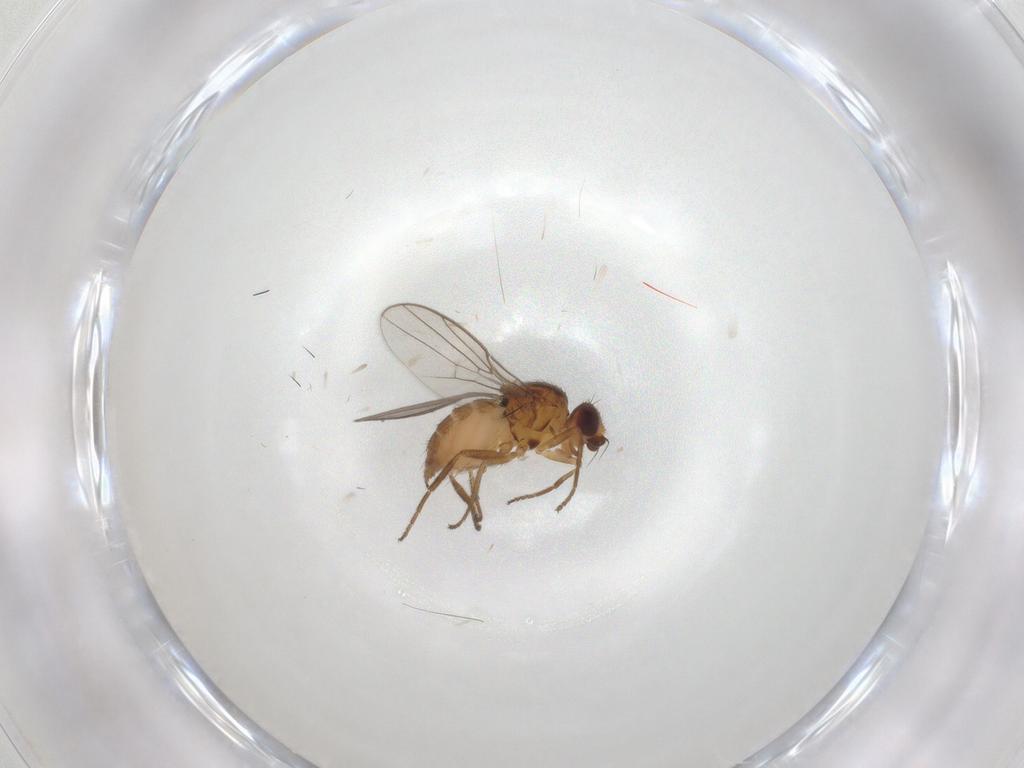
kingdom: Animalia
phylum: Arthropoda
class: Insecta
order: Diptera
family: Chloropidae
